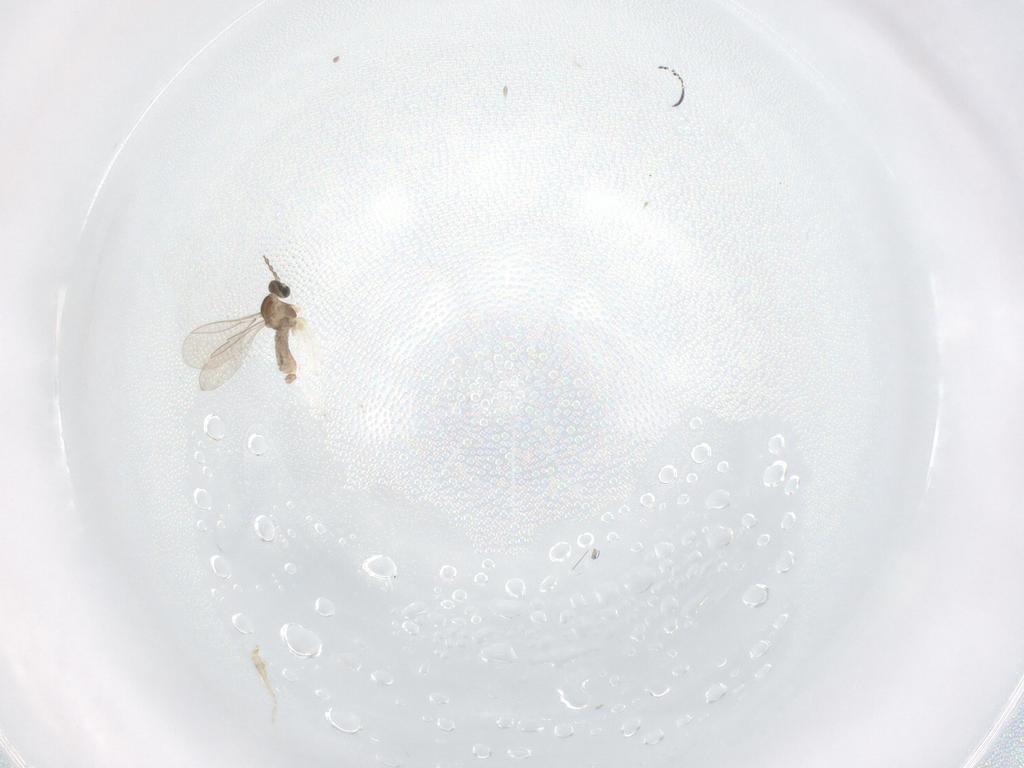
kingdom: Animalia
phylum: Arthropoda
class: Insecta
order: Diptera
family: Cecidomyiidae
